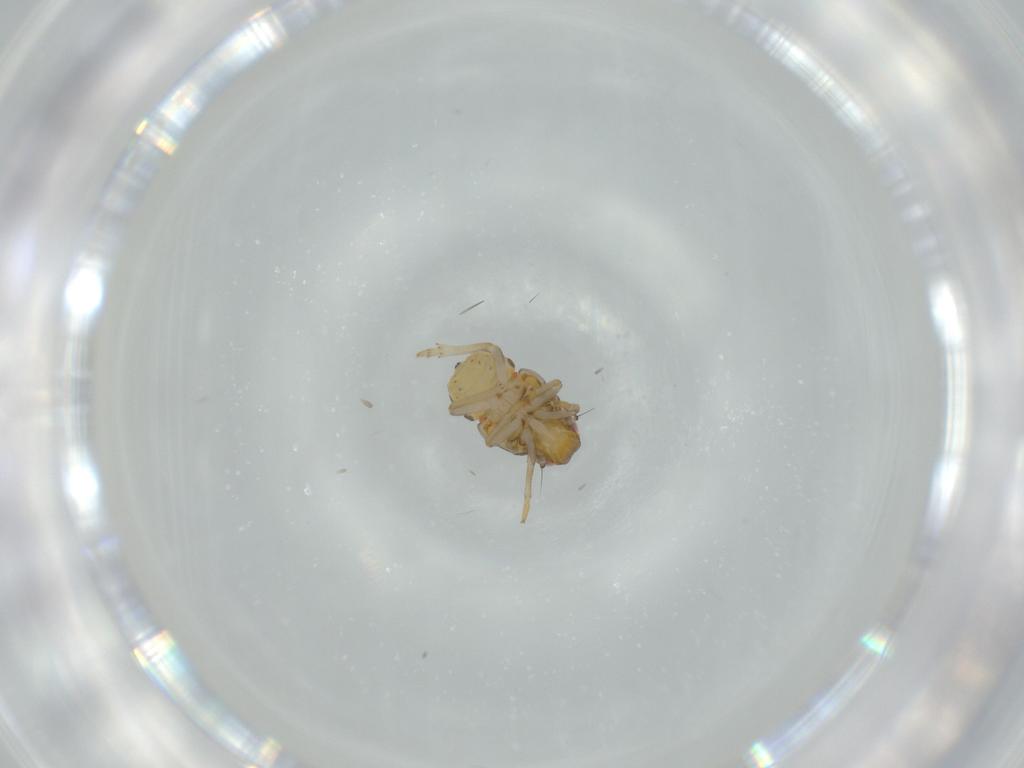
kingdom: Animalia
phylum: Arthropoda
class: Insecta
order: Hemiptera
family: Issidae
